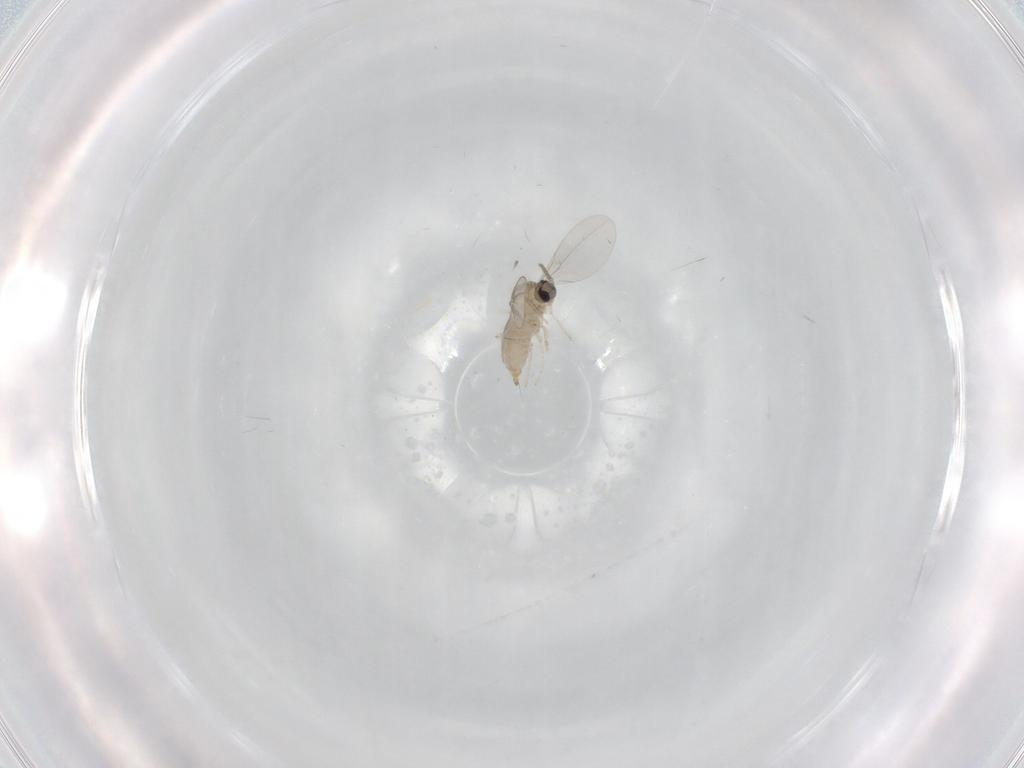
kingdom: Animalia
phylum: Arthropoda
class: Insecta
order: Diptera
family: Cecidomyiidae
